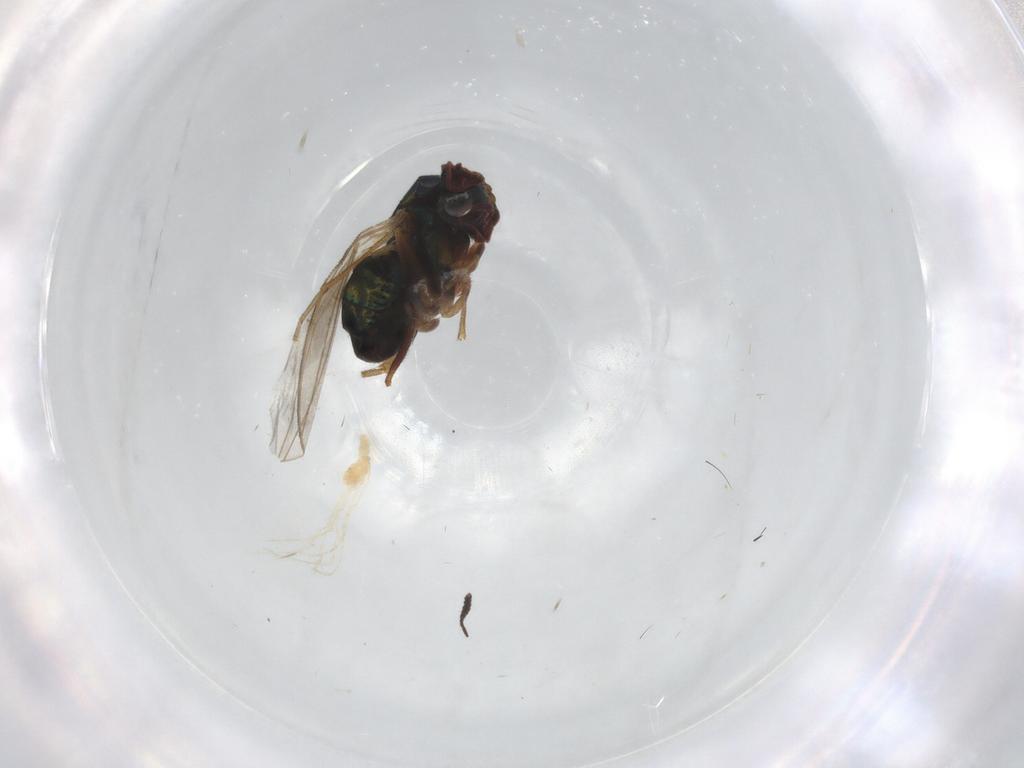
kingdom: Animalia
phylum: Arthropoda
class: Insecta
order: Diptera
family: Dolichopodidae
